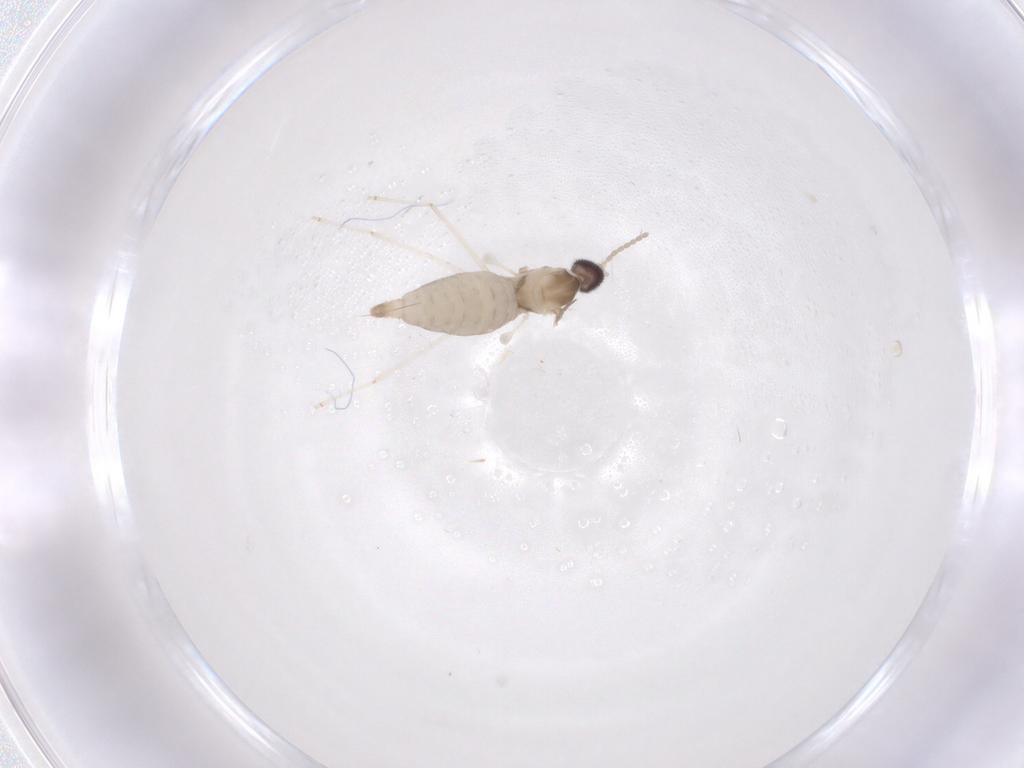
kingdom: Animalia
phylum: Arthropoda
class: Insecta
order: Diptera
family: Cecidomyiidae
